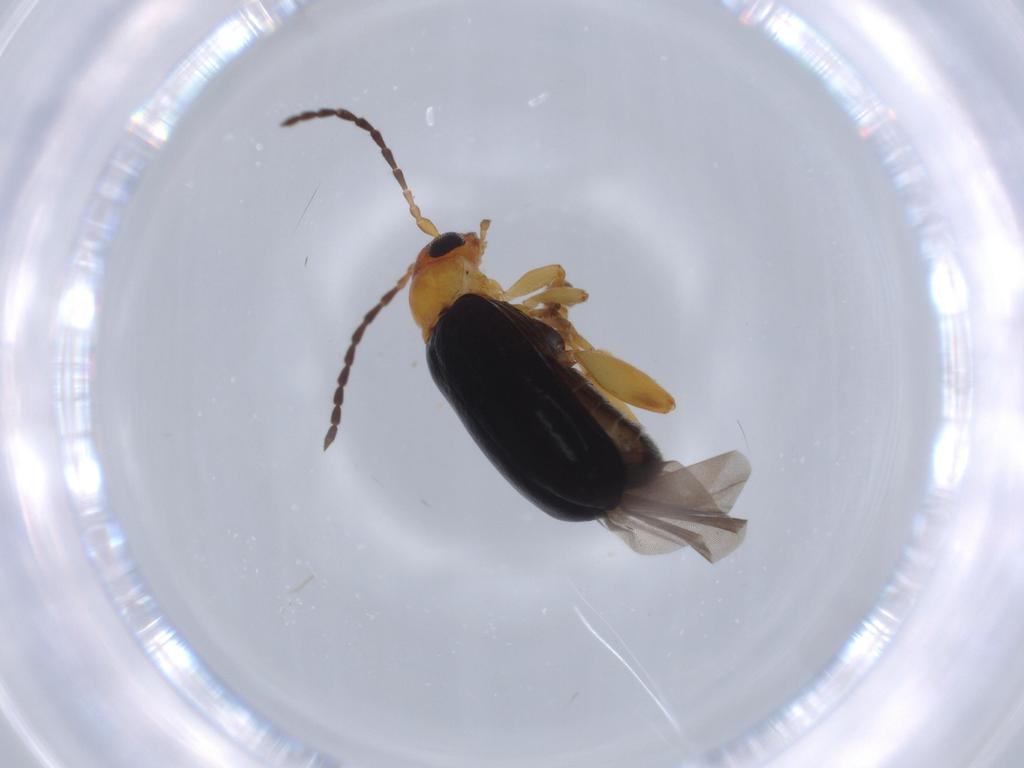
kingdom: Animalia
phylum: Arthropoda
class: Insecta
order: Coleoptera
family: Chrysomelidae
